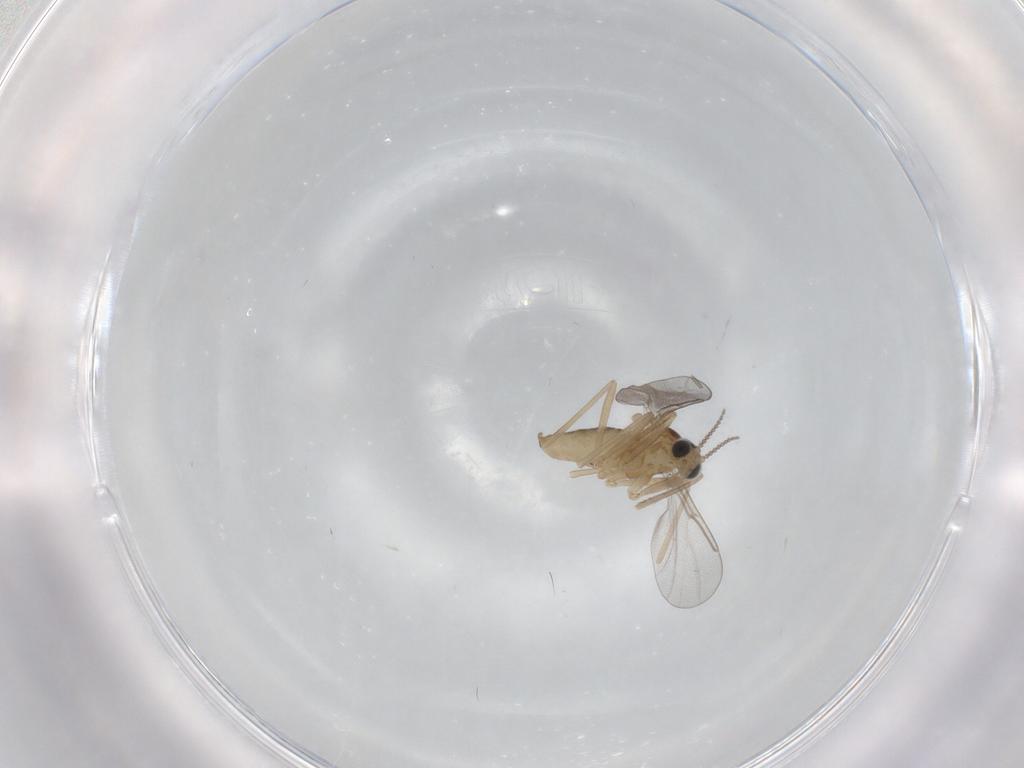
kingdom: Animalia
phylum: Arthropoda
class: Insecta
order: Diptera
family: Cecidomyiidae
